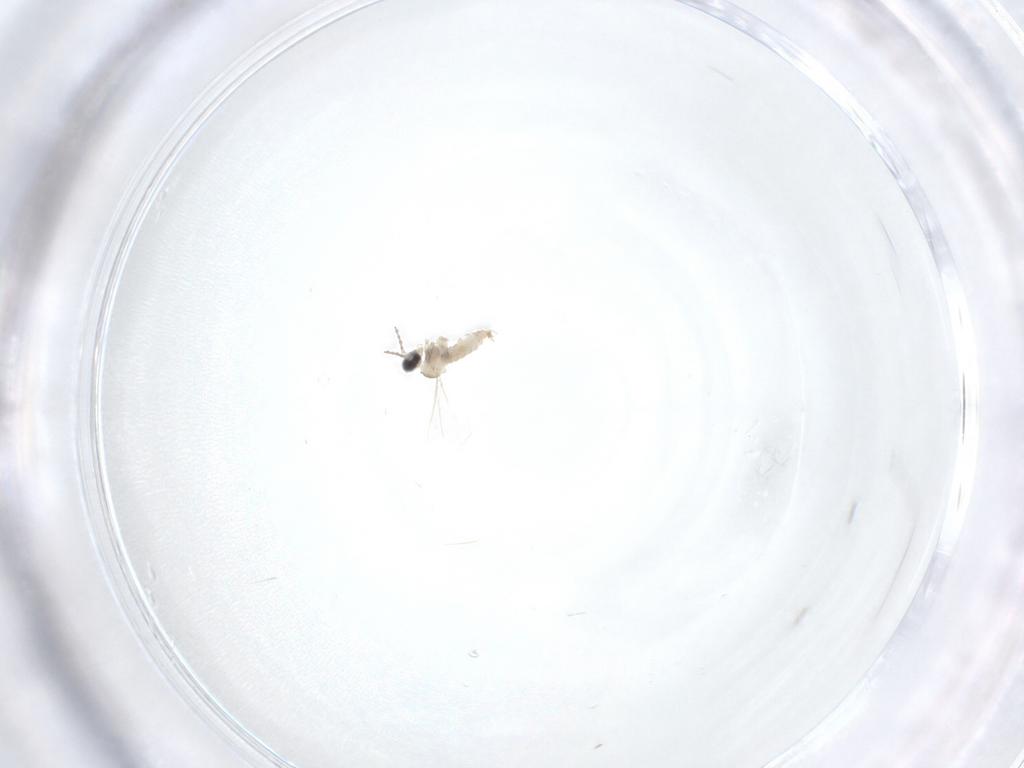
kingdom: Animalia
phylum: Arthropoda
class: Insecta
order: Diptera
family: Cecidomyiidae
